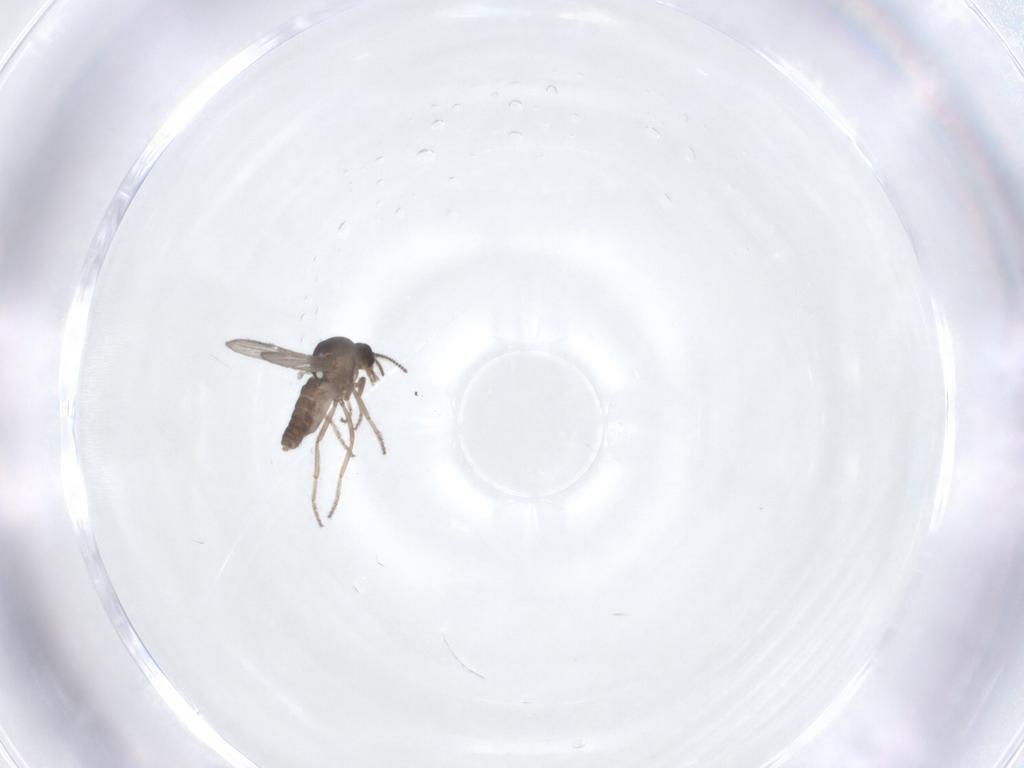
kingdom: Animalia
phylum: Arthropoda
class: Insecta
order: Diptera
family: Ceratopogonidae
